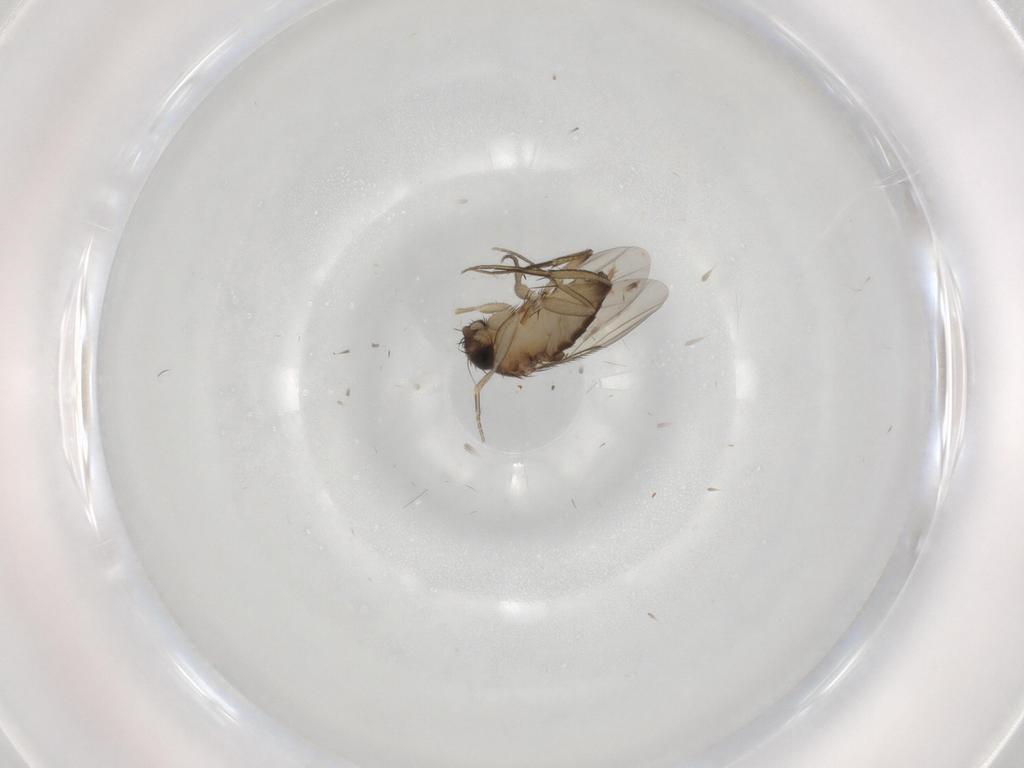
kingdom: Animalia
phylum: Arthropoda
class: Insecta
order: Diptera
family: Phoridae
